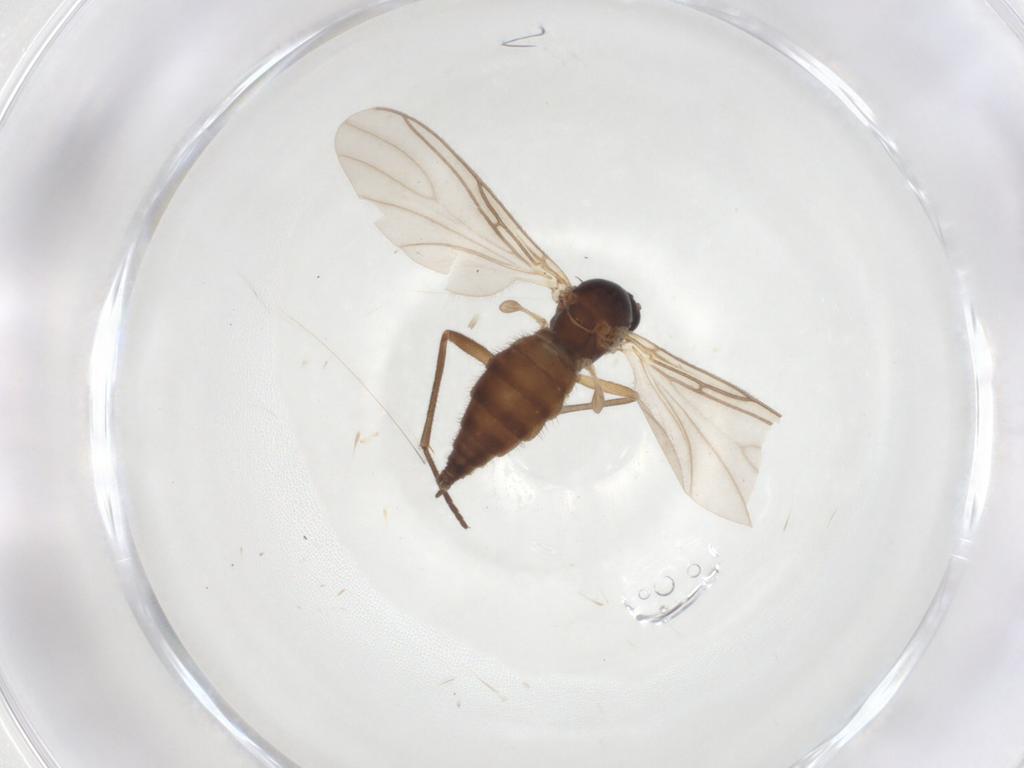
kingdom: Animalia
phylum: Arthropoda
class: Insecta
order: Diptera
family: Sciaridae
